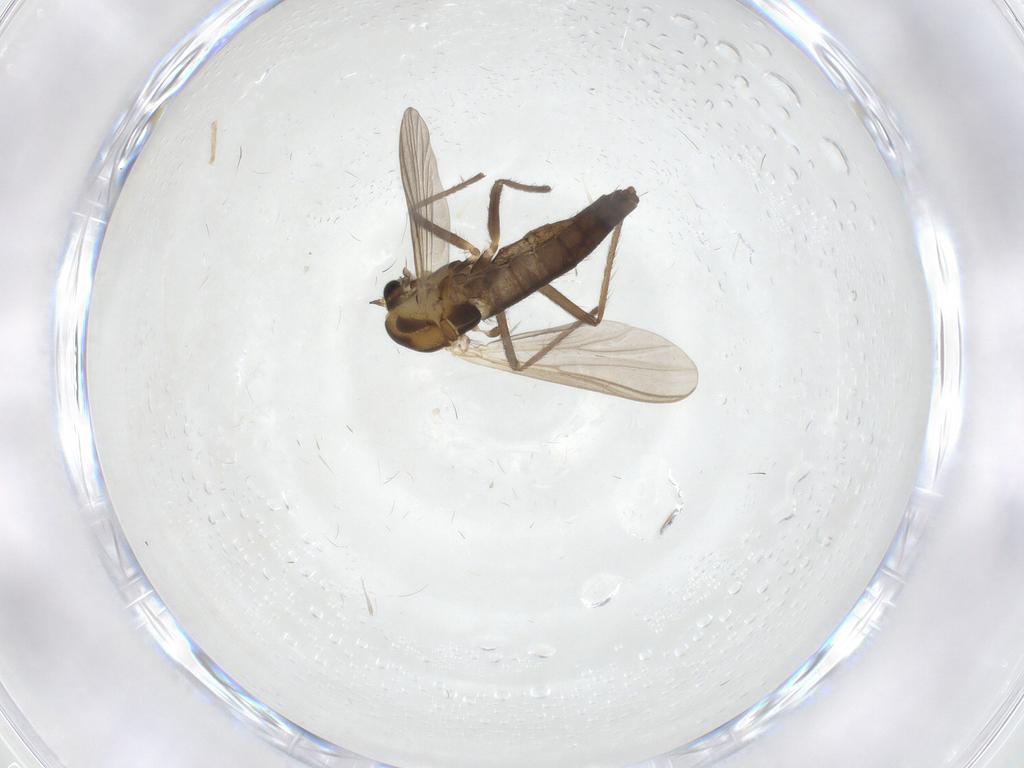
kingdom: Animalia
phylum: Arthropoda
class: Insecta
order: Diptera
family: Chironomidae
